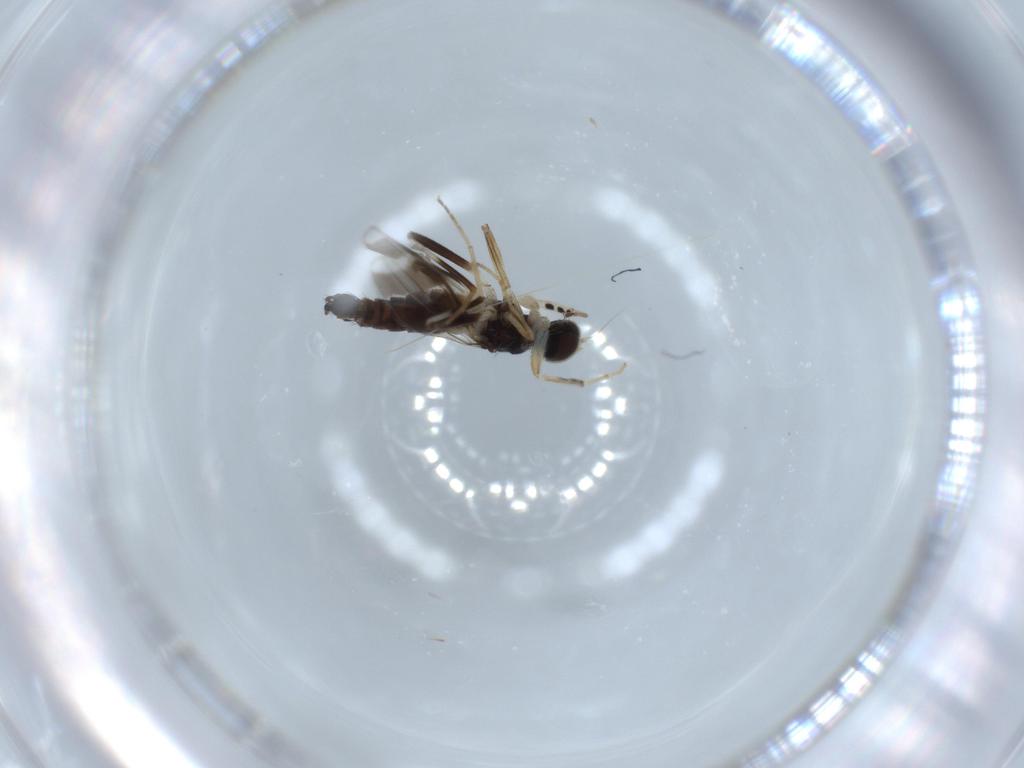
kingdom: Animalia
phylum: Arthropoda
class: Insecta
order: Diptera
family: Hybotidae
